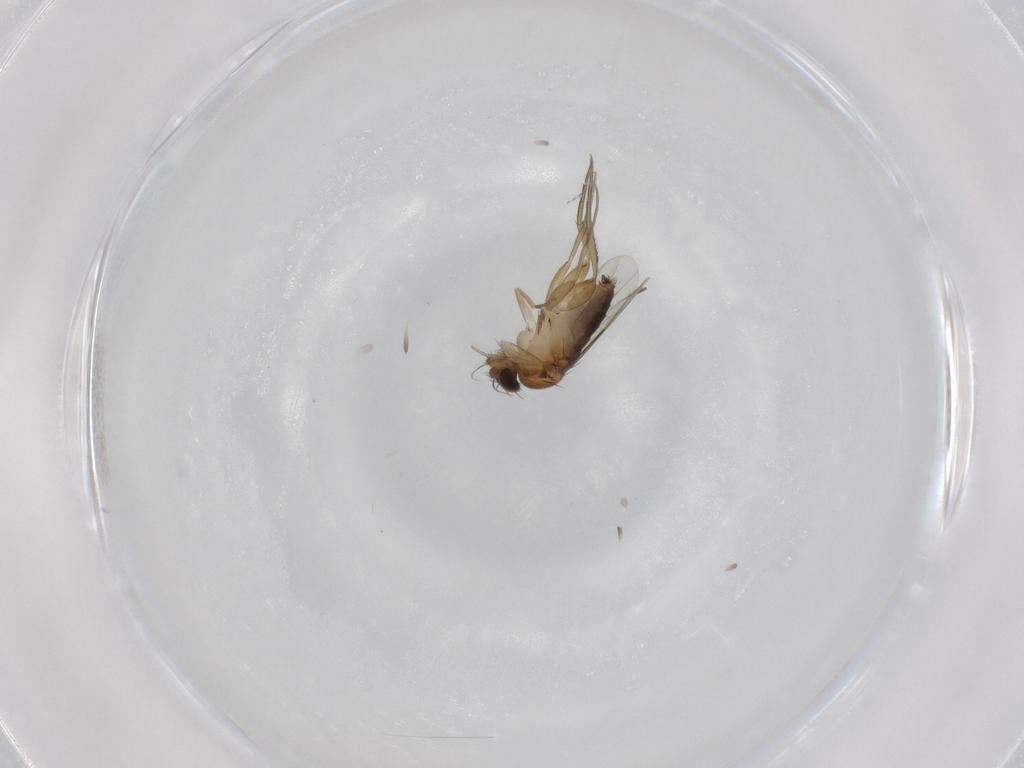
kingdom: Animalia
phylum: Arthropoda
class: Insecta
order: Diptera
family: Phoridae
